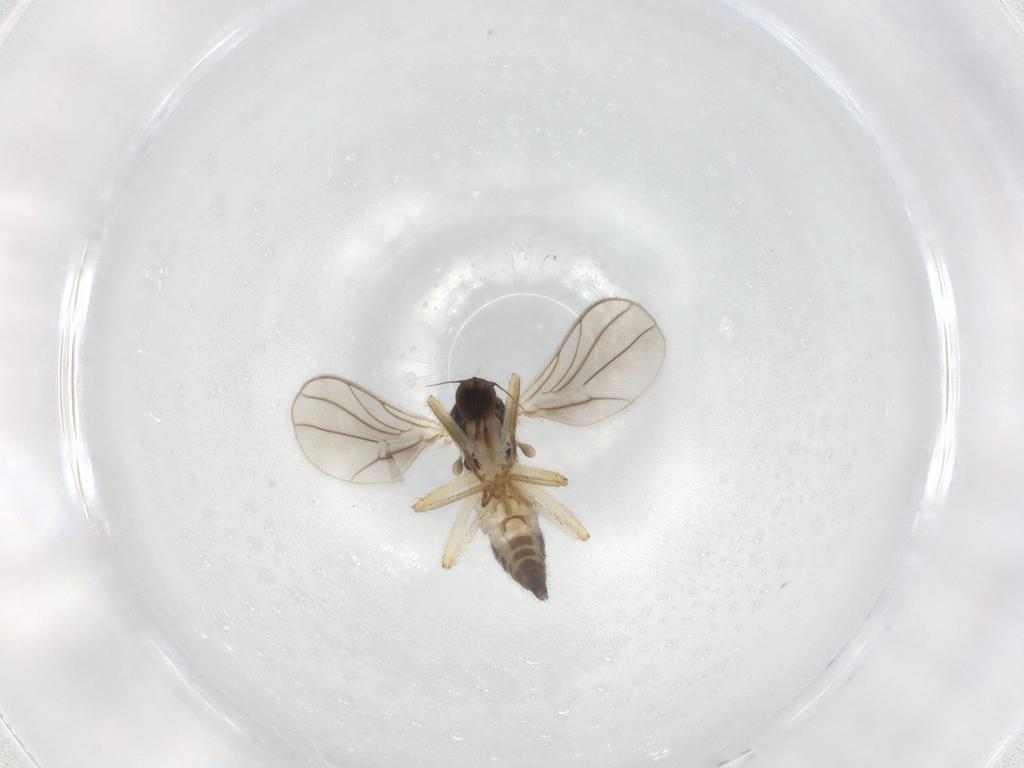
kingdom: Animalia
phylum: Arthropoda
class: Insecta
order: Diptera
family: Hybotidae
